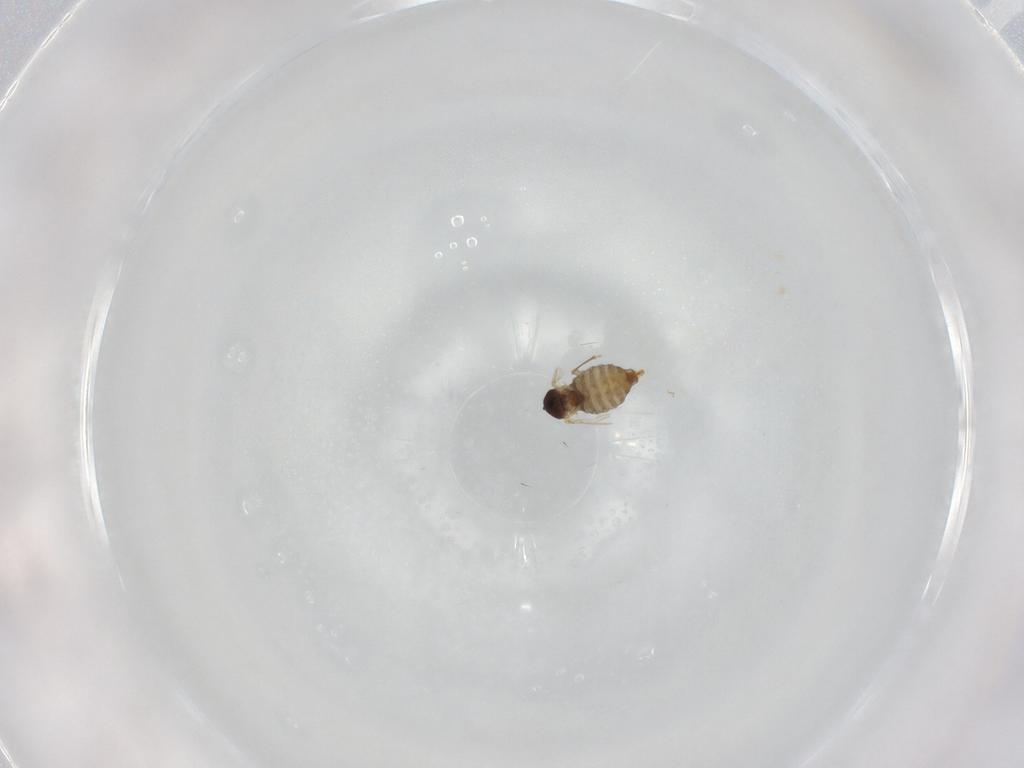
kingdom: Animalia
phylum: Arthropoda
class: Insecta
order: Diptera
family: Cecidomyiidae
